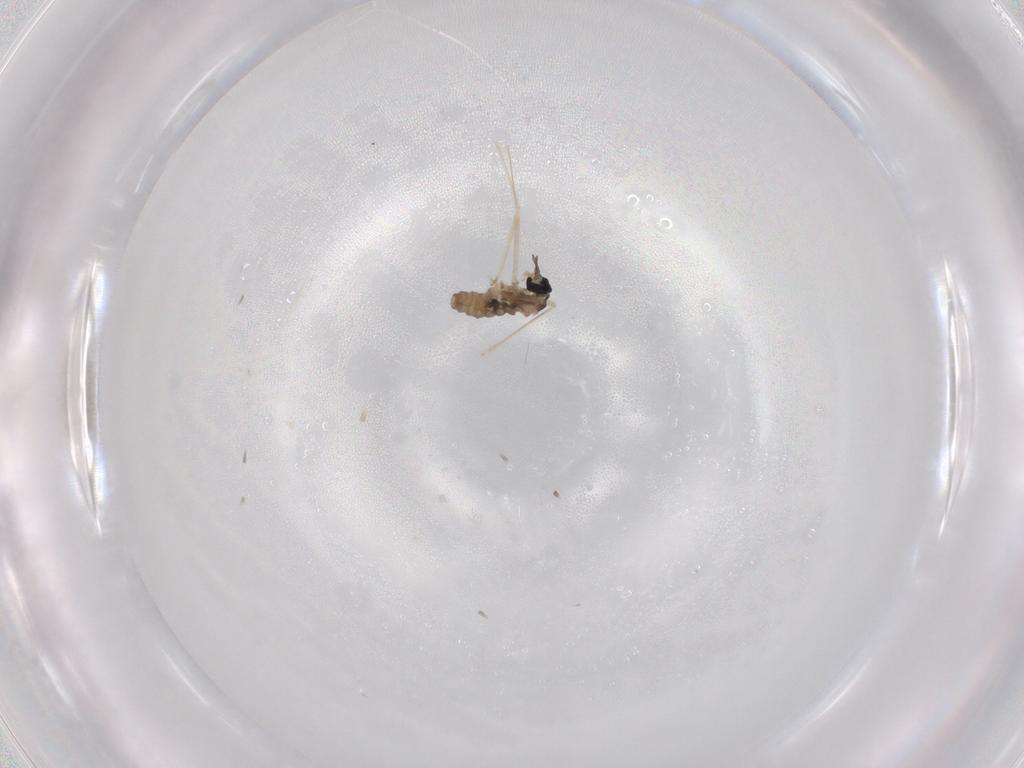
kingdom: Animalia
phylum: Arthropoda
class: Insecta
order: Diptera
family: Cecidomyiidae
